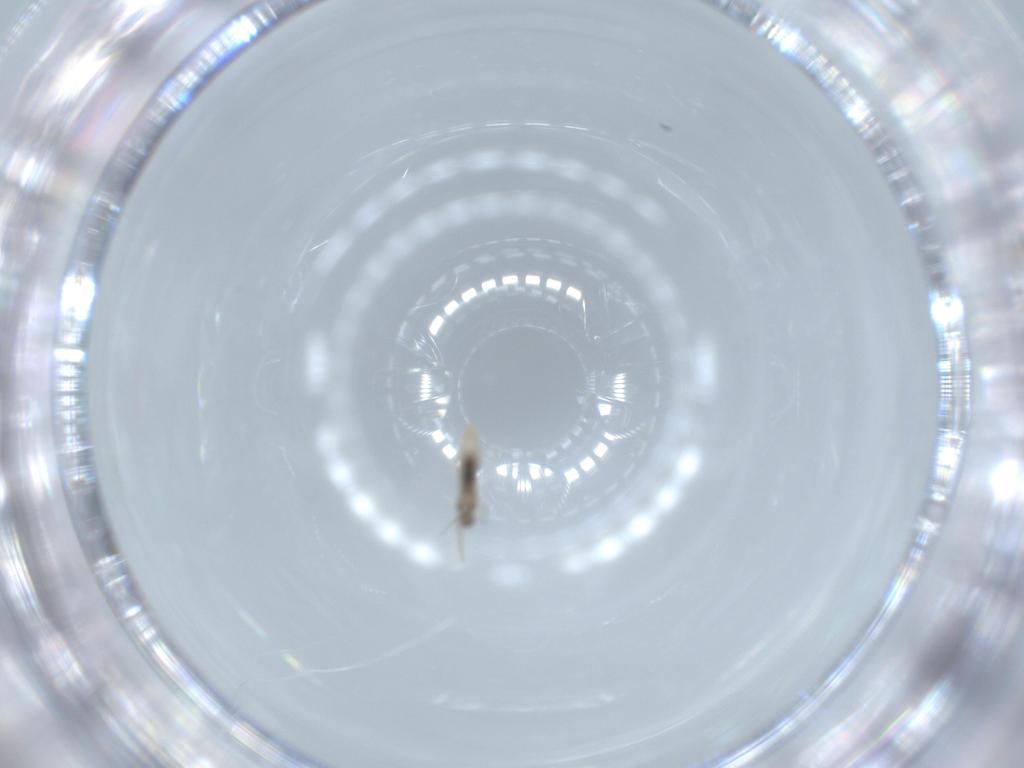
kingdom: Animalia
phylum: Arthropoda
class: Insecta
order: Diptera
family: Cecidomyiidae
